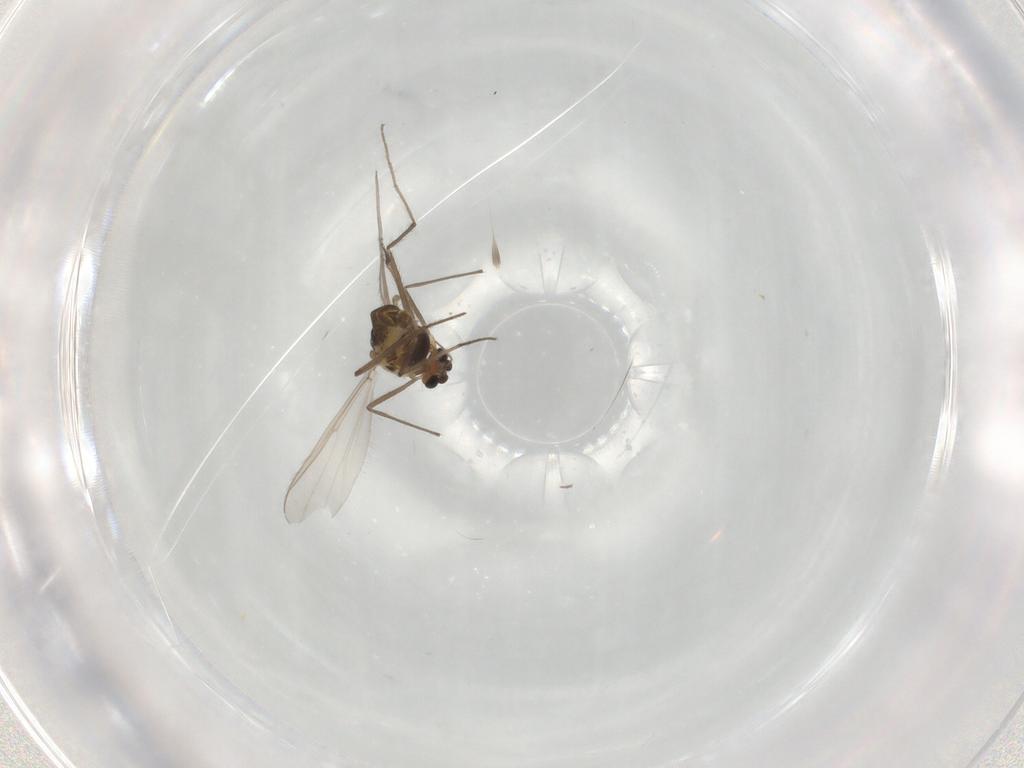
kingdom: Animalia
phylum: Arthropoda
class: Insecta
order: Diptera
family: Chironomidae
